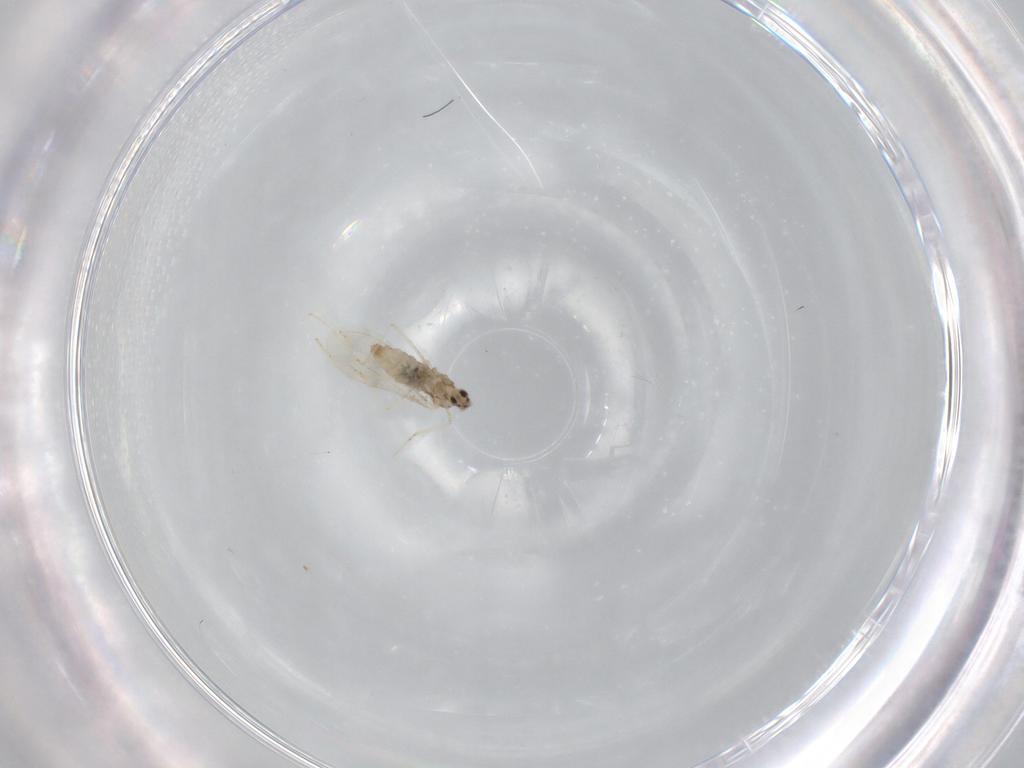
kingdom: Animalia
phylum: Arthropoda
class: Insecta
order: Diptera
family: Cecidomyiidae
